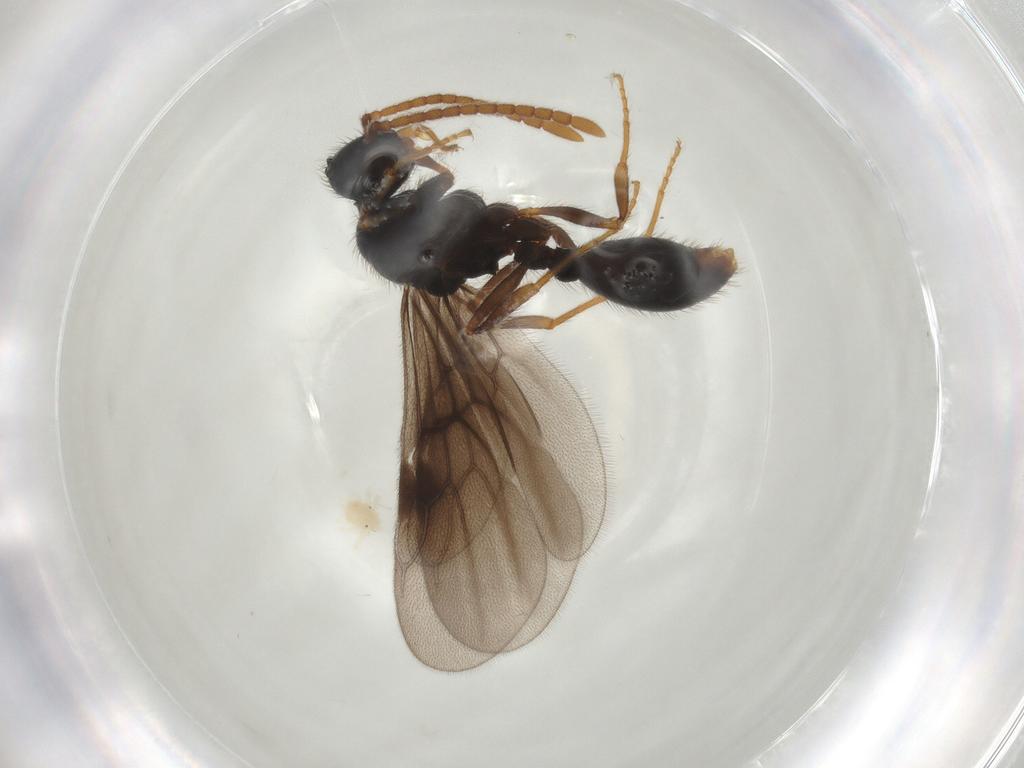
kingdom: Animalia
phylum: Arthropoda
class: Insecta
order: Hymenoptera
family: Formicidae
